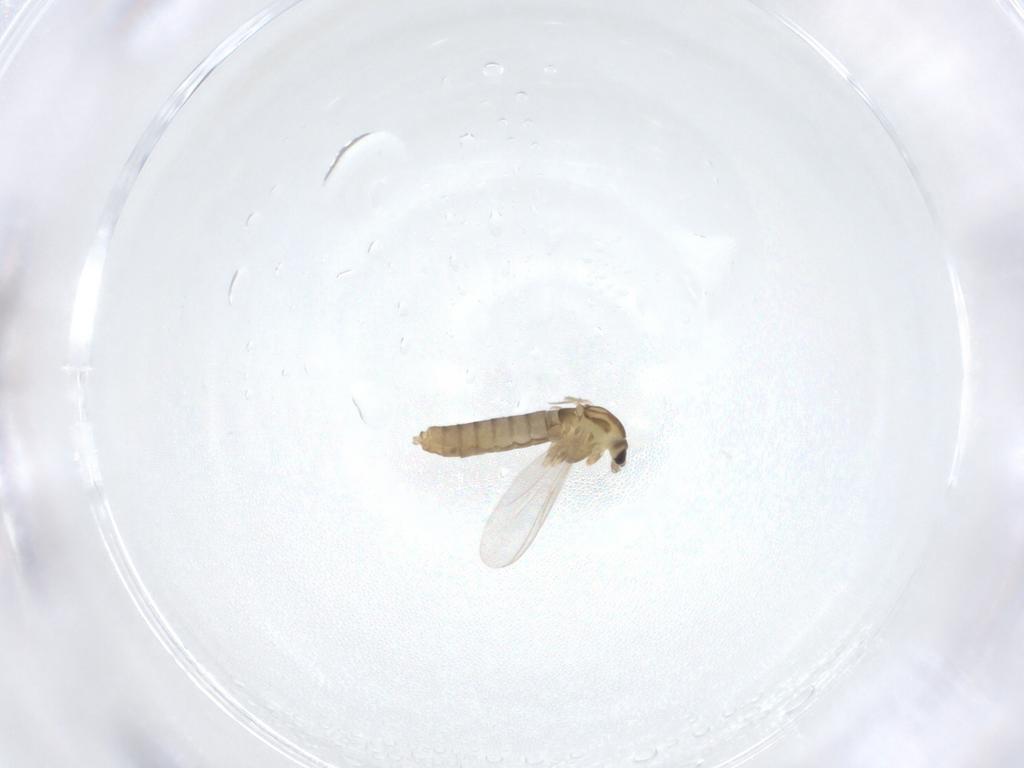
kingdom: Animalia
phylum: Arthropoda
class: Insecta
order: Diptera
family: Chironomidae
